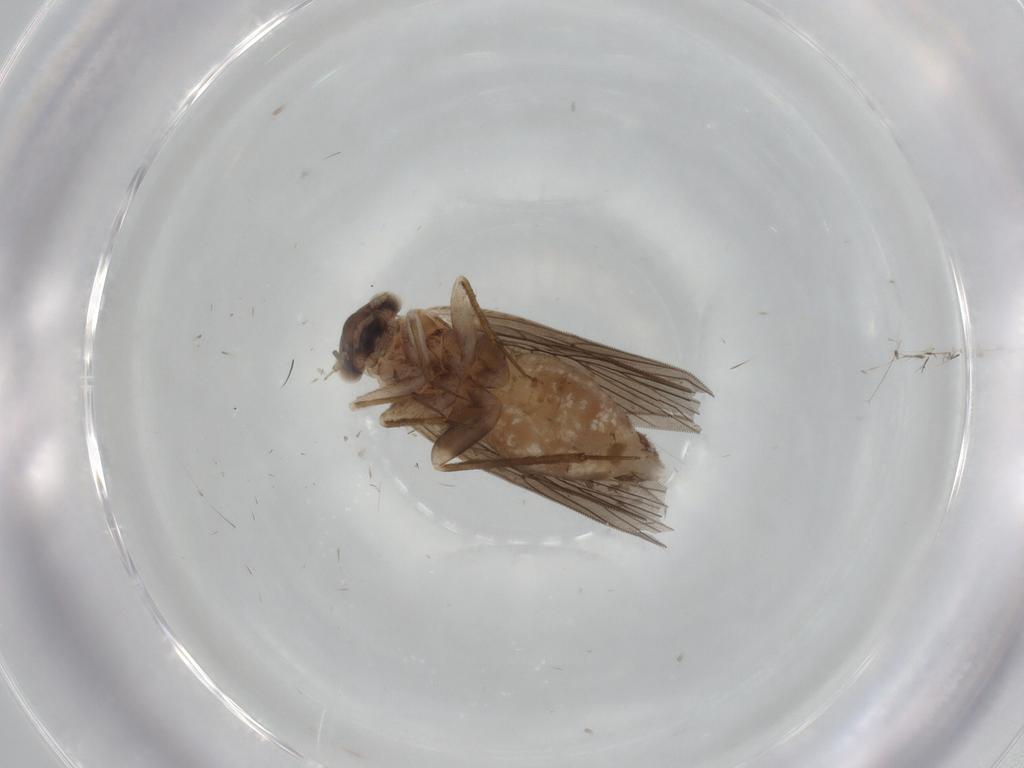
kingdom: Animalia
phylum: Arthropoda
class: Insecta
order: Psocodea
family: Lepidopsocidae
